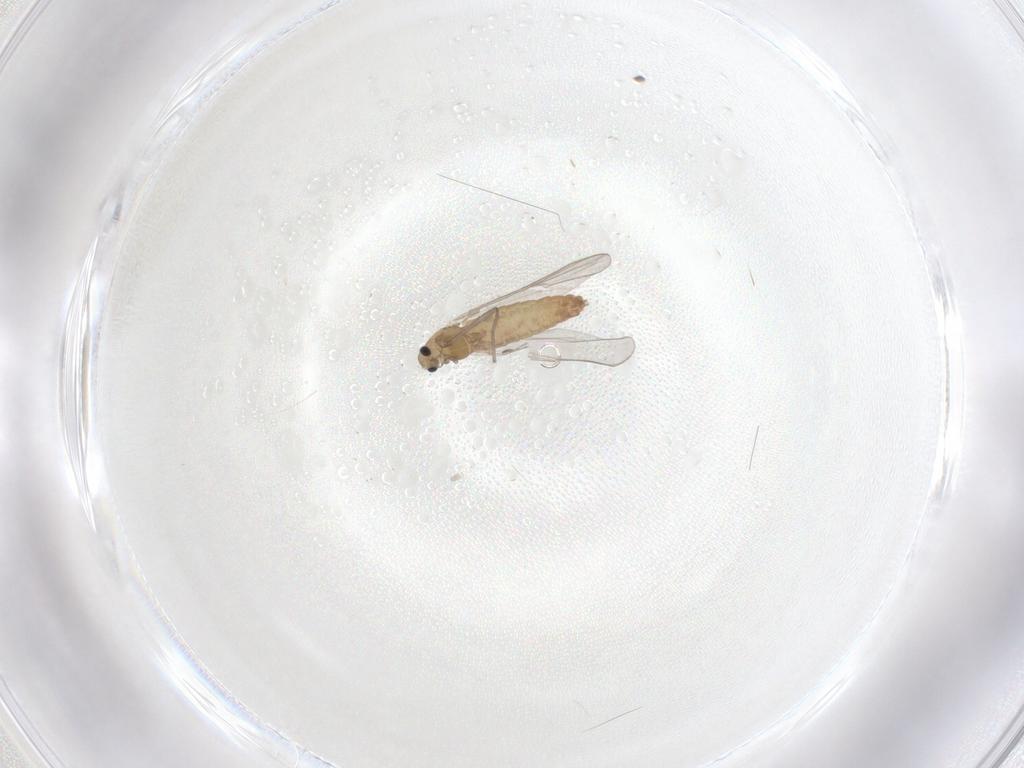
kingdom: Animalia
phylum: Arthropoda
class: Insecta
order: Diptera
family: Chironomidae
